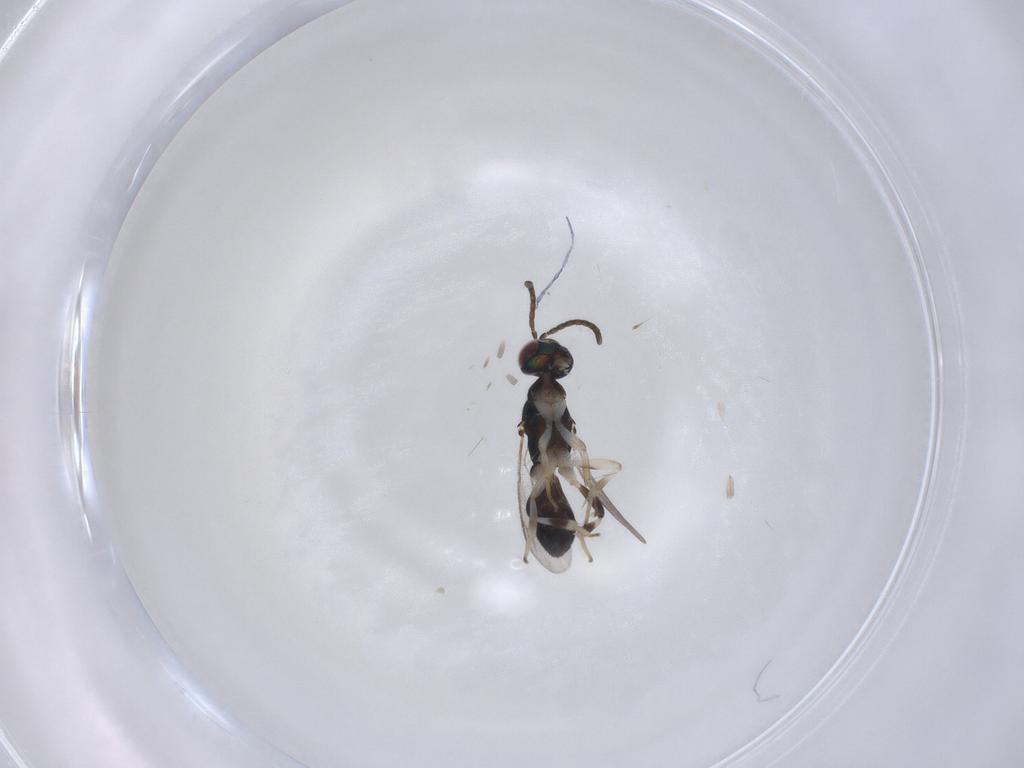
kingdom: Animalia
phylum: Arthropoda
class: Insecta
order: Hymenoptera
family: Eupelmidae
